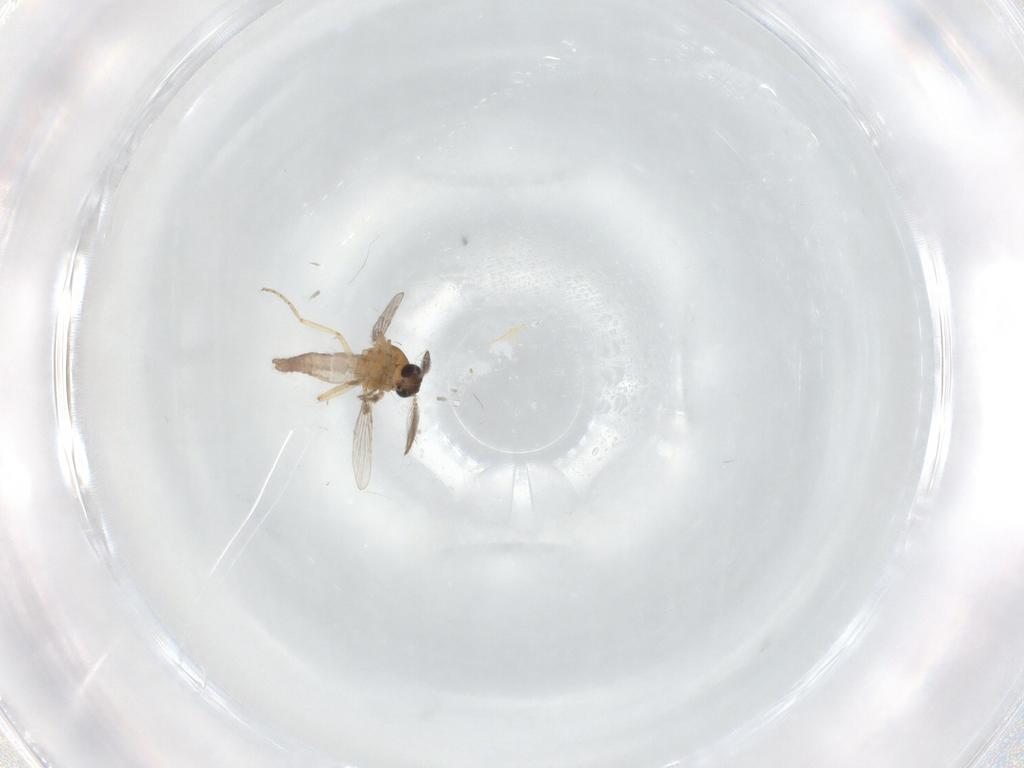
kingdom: Animalia
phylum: Arthropoda
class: Insecta
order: Diptera
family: Ceratopogonidae
